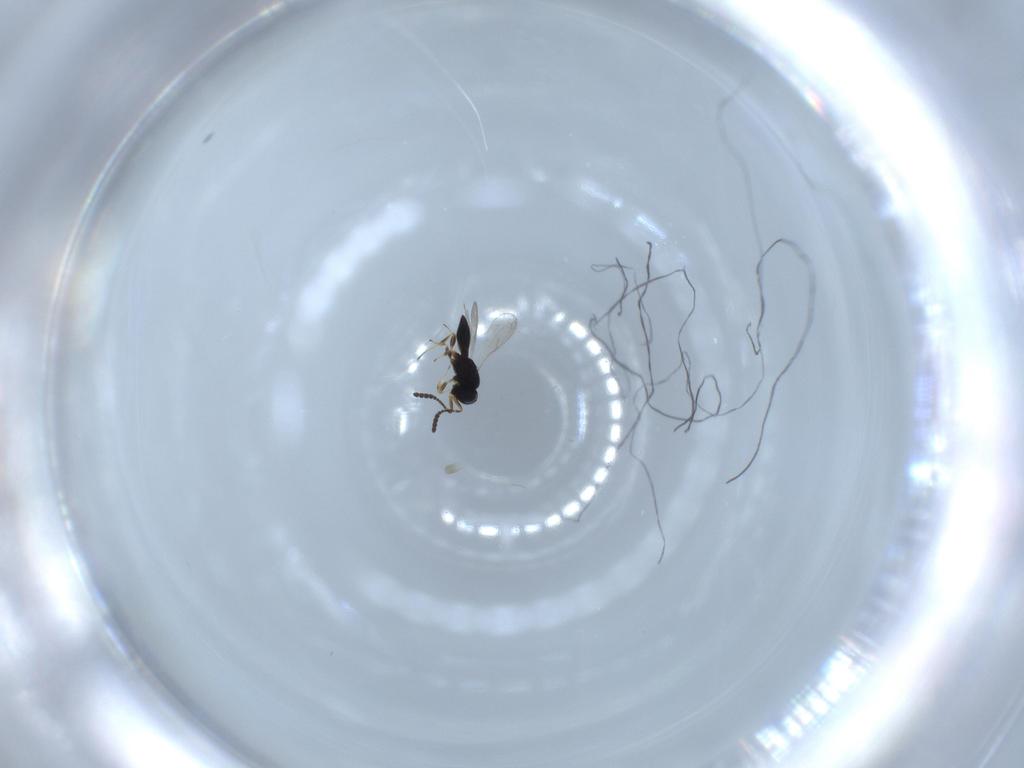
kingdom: Animalia
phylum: Arthropoda
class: Insecta
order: Hymenoptera
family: Scelionidae
